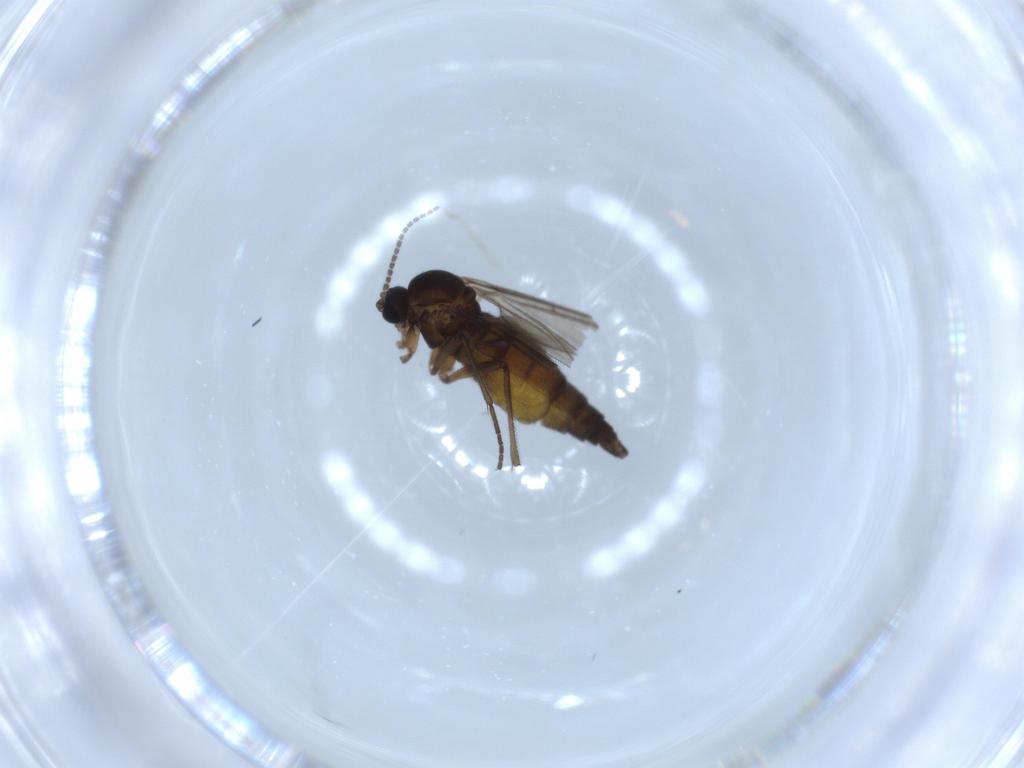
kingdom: Animalia
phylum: Arthropoda
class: Insecta
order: Diptera
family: Sciaridae
